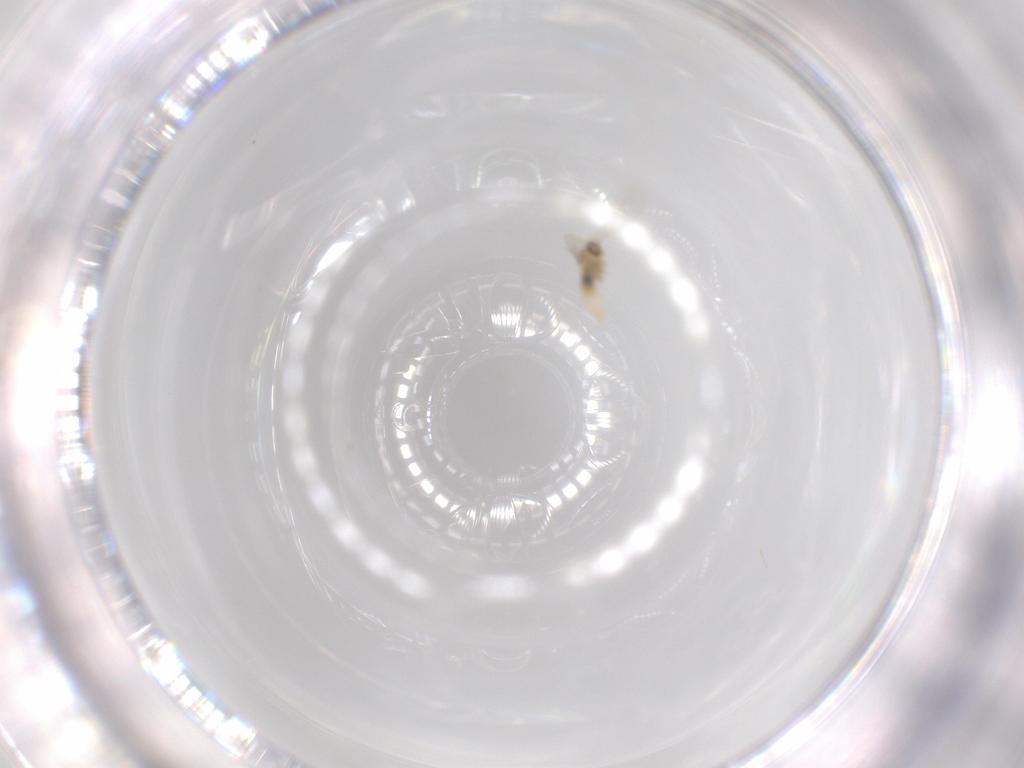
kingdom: Animalia
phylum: Arthropoda
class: Insecta
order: Diptera
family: Cecidomyiidae
